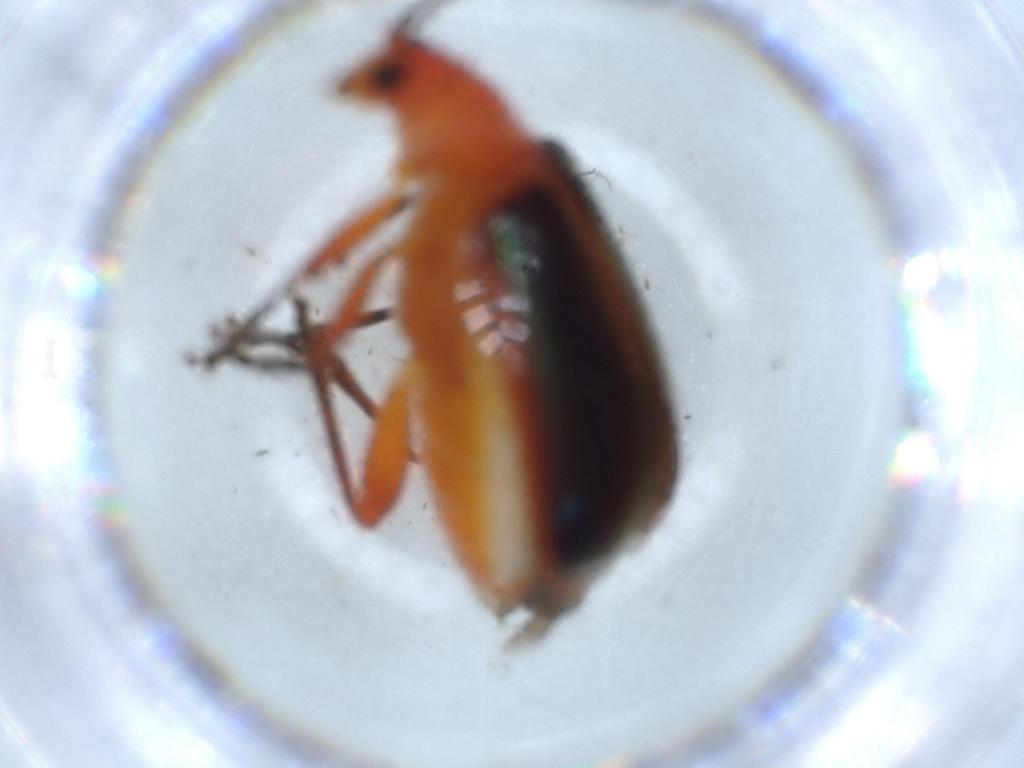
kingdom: Animalia
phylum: Arthropoda
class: Insecta
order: Coleoptera
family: Chrysomelidae
